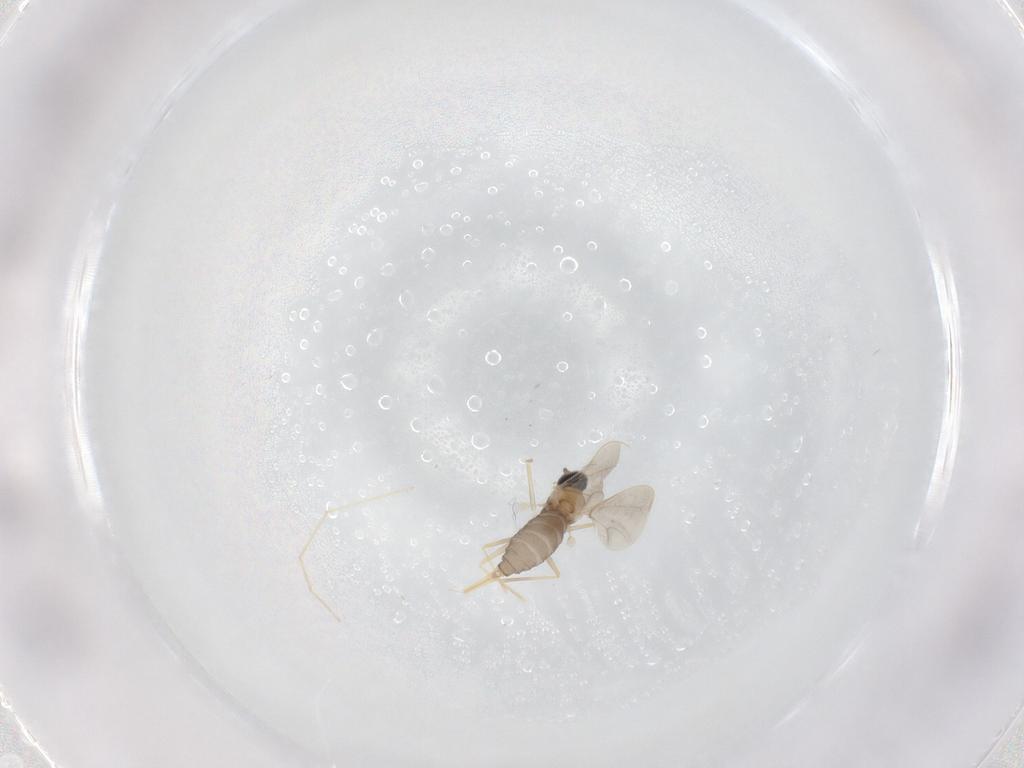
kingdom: Animalia
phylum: Arthropoda
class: Insecta
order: Diptera
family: Cecidomyiidae
